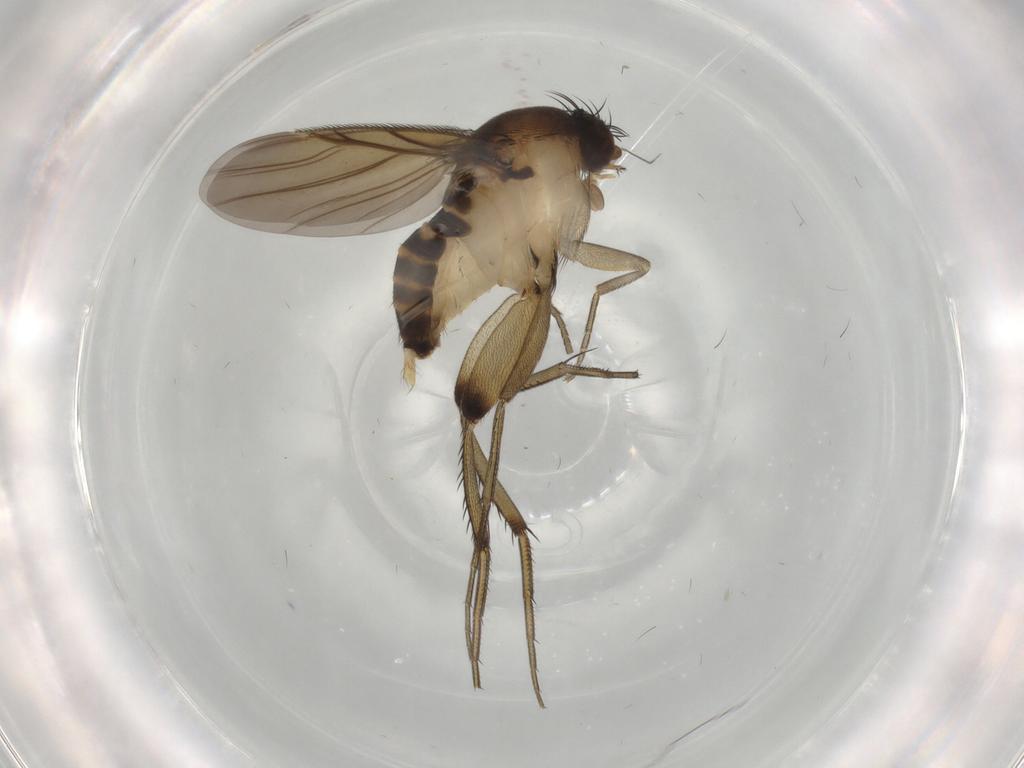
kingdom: Animalia
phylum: Arthropoda
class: Insecta
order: Diptera
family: Phoridae
